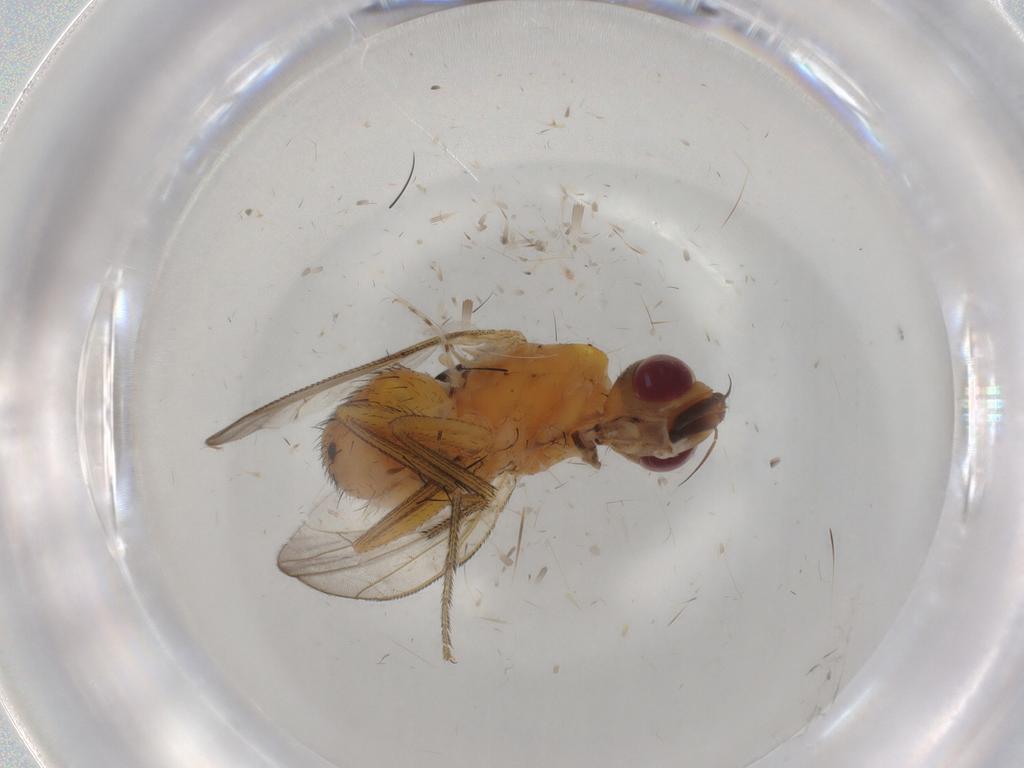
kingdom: Animalia
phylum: Arthropoda
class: Insecta
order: Diptera
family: Muscidae
